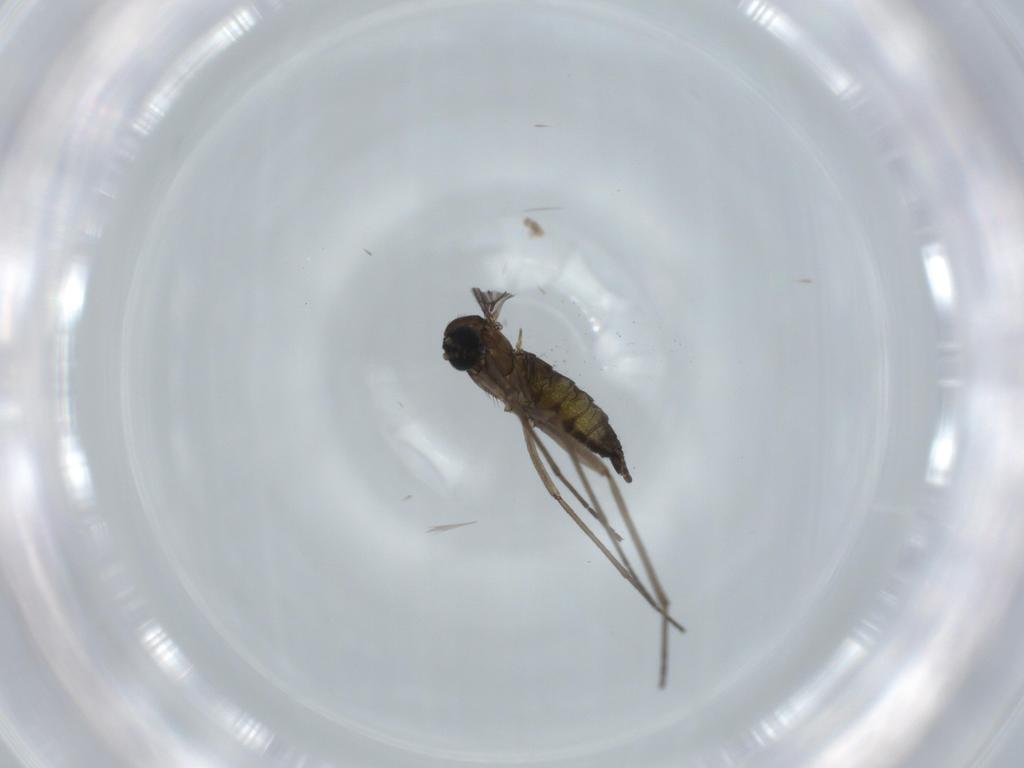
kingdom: Animalia
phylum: Arthropoda
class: Insecta
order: Diptera
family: Sciaridae
